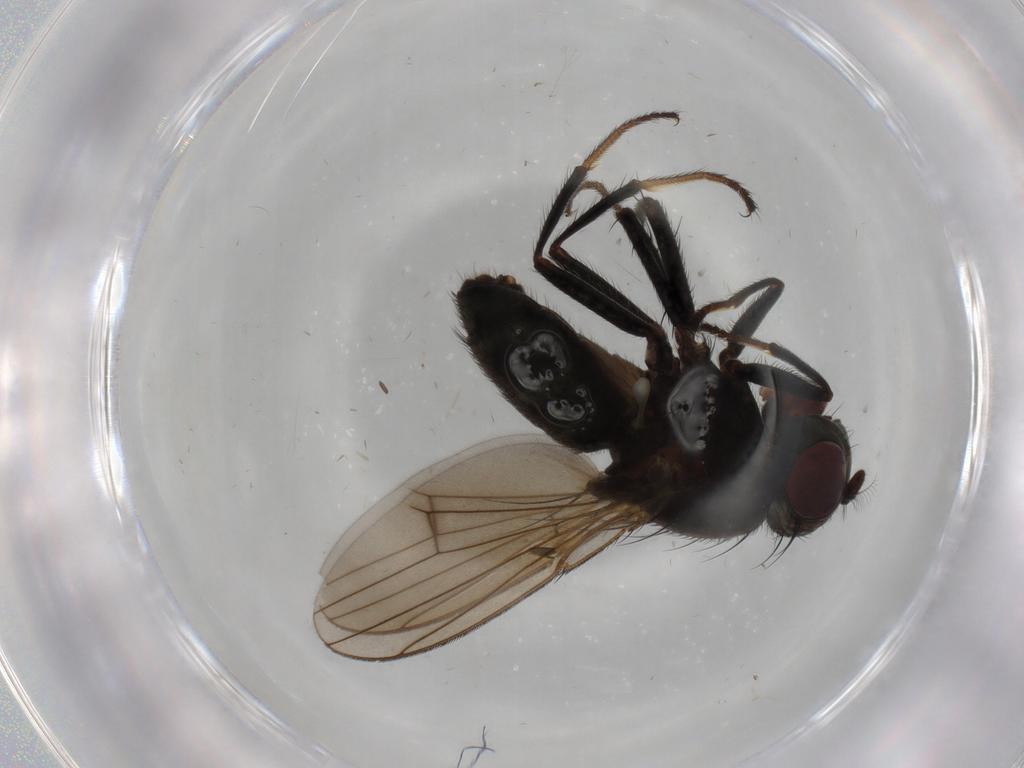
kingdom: Animalia
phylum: Arthropoda
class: Insecta
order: Diptera
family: Ephydridae
